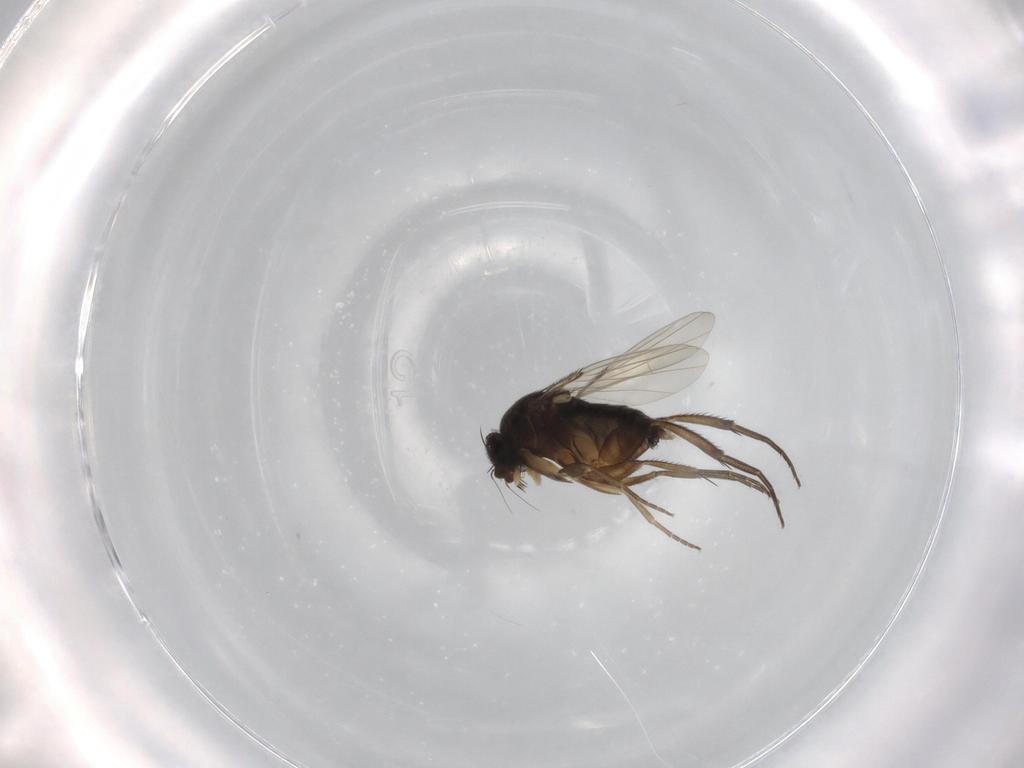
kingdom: Animalia
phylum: Arthropoda
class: Insecta
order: Diptera
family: Phoridae
